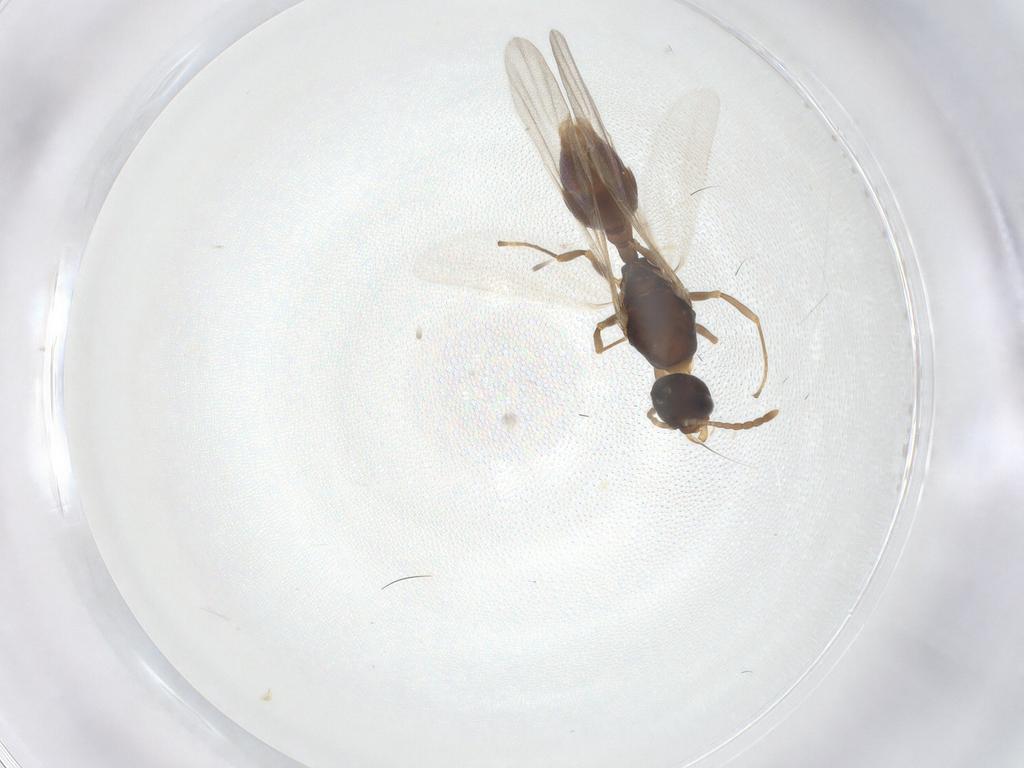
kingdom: Animalia
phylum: Arthropoda
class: Insecta
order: Hymenoptera
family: Formicidae
